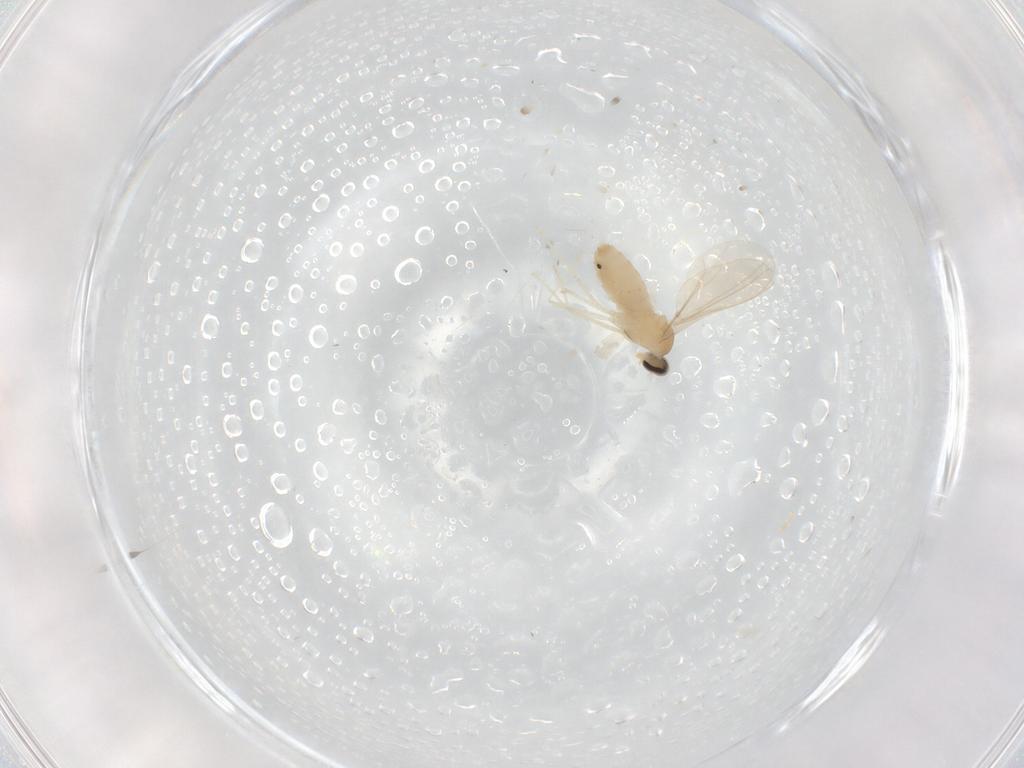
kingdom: Animalia
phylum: Arthropoda
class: Insecta
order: Diptera
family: Cecidomyiidae
